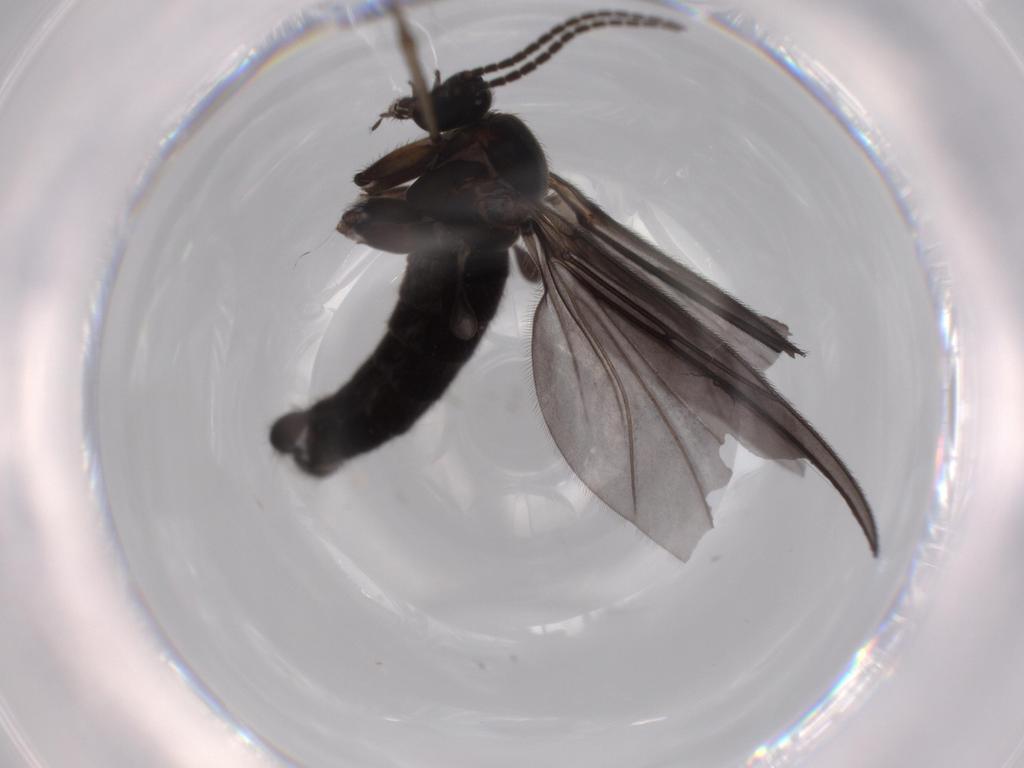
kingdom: Animalia
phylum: Arthropoda
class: Insecta
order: Diptera
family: Sciaridae
